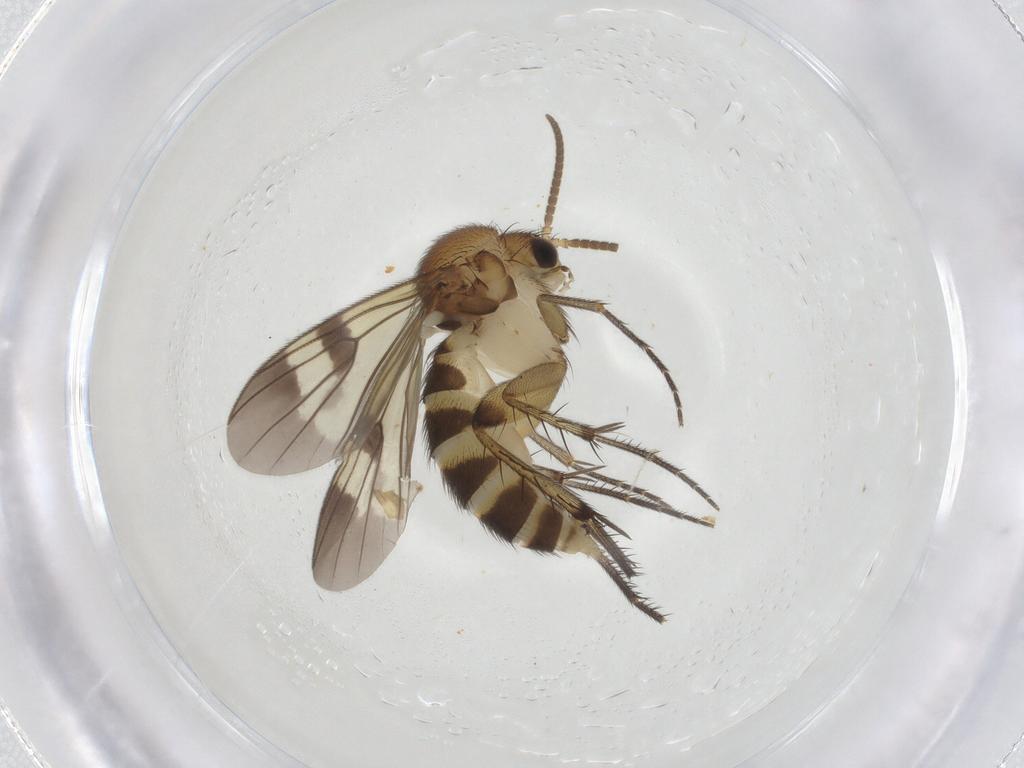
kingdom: Animalia
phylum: Arthropoda
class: Insecta
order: Diptera
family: Mycetophilidae
